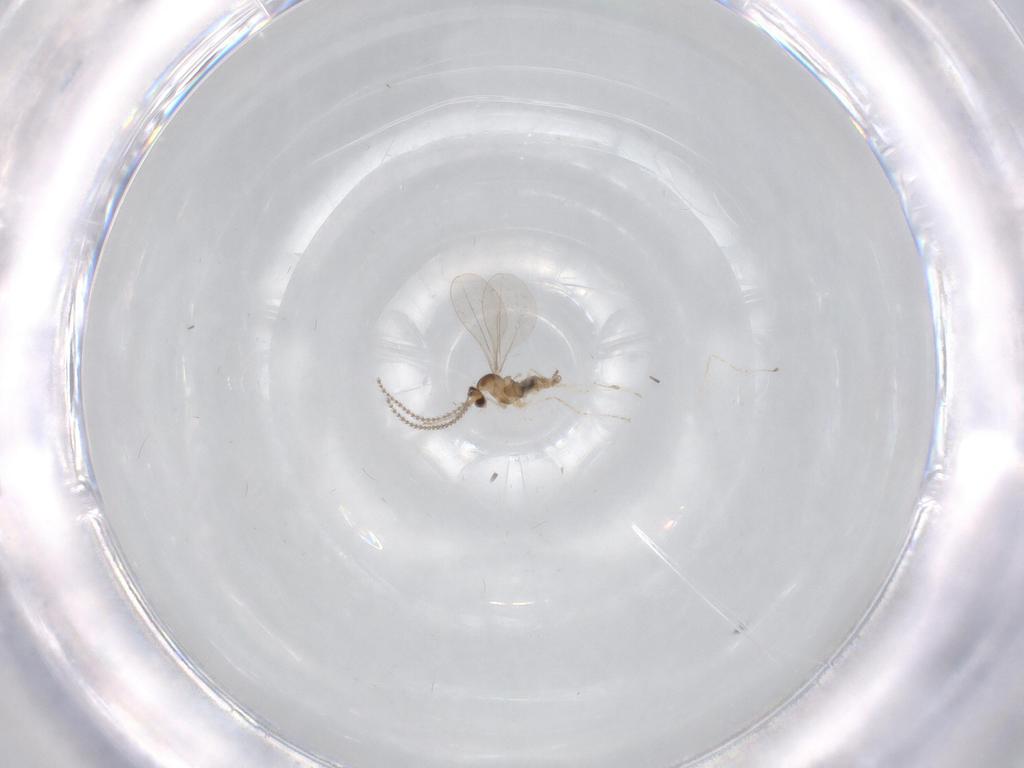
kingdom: Animalia
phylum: Arthropoda
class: Insecta
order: Diptera
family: Cecidomyiidae
